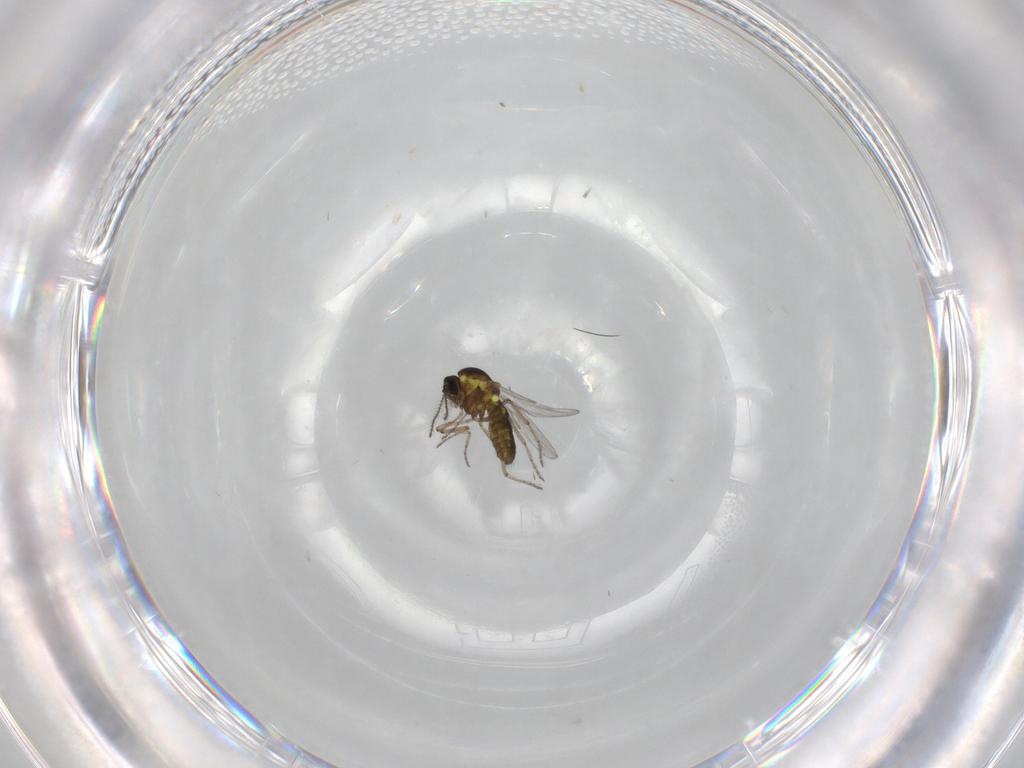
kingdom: Animalia
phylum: Arthropoda
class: Insecta
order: Diptera
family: Ceratopogonidae
